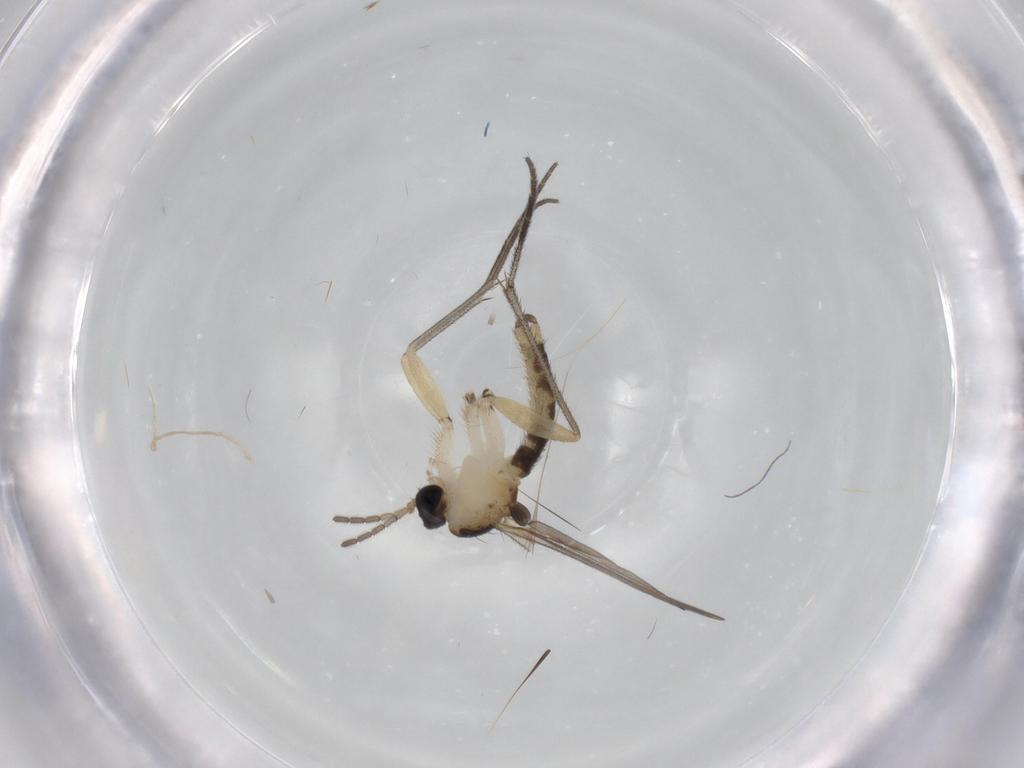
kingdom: Animalia
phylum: Arthropoda
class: Insecta
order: Diptera
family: Sciaridae
